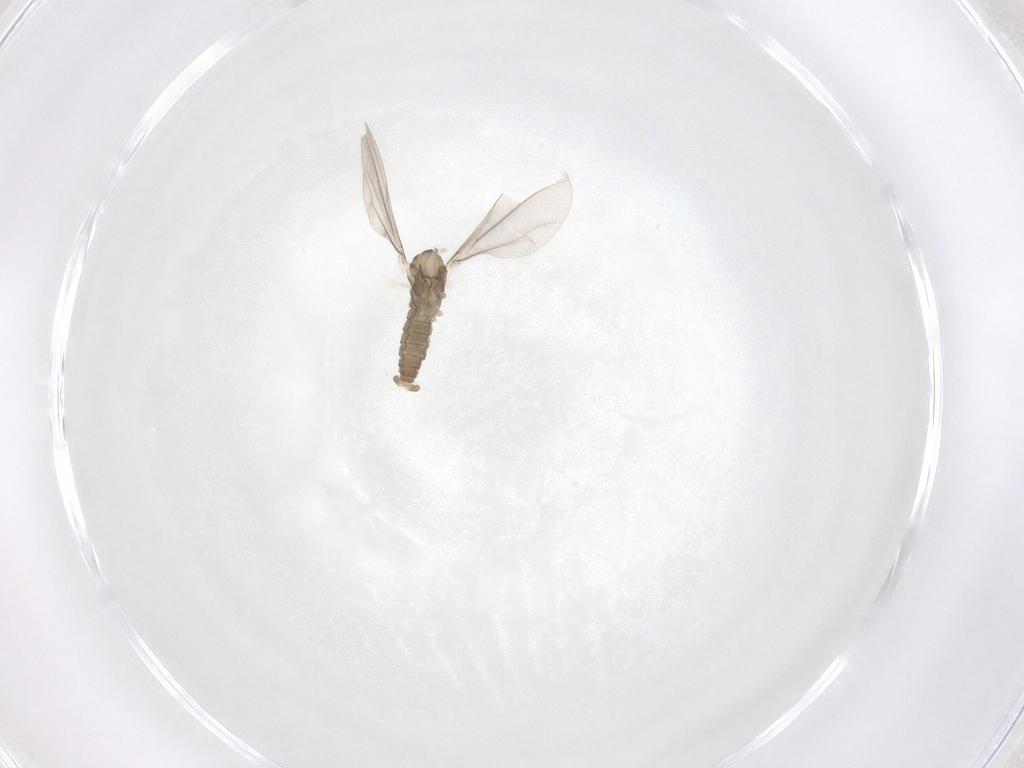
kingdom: Animalia
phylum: Arthropoda
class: Insecta
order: Diptera
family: Cecidomyiidae
